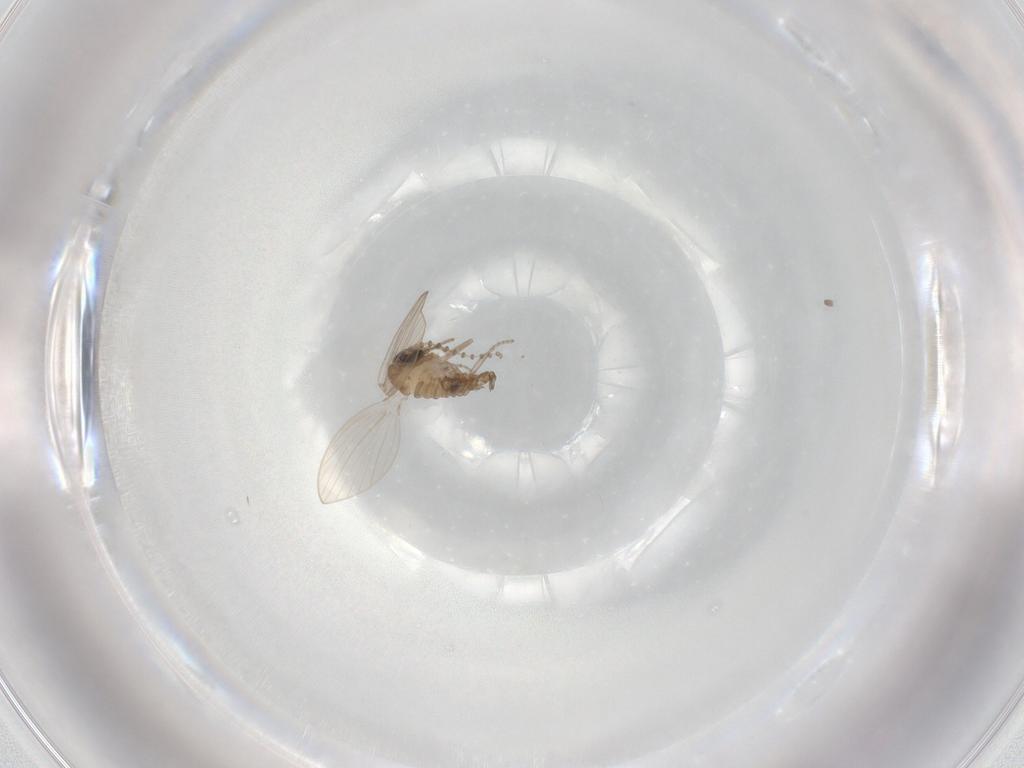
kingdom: Animalia
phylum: Arthropoda
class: Insecta
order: Diptera
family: Psychodidae
